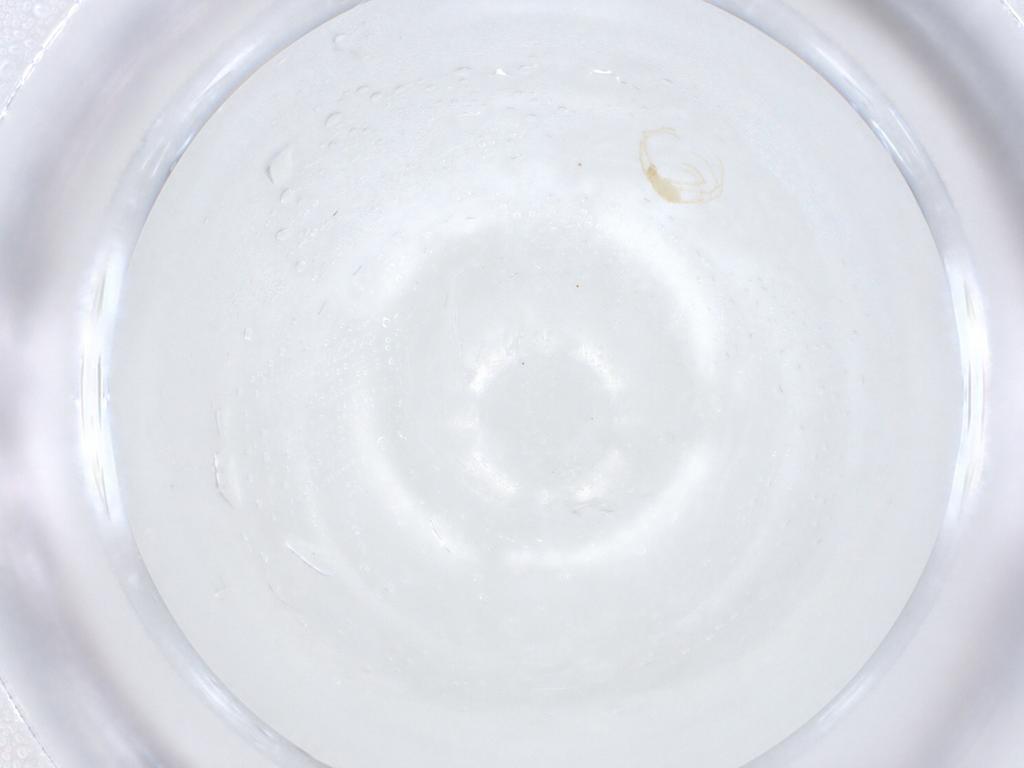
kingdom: Animalia
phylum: Arthropoda
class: Arachnida
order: Trombidiformes
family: Erythraeidae
